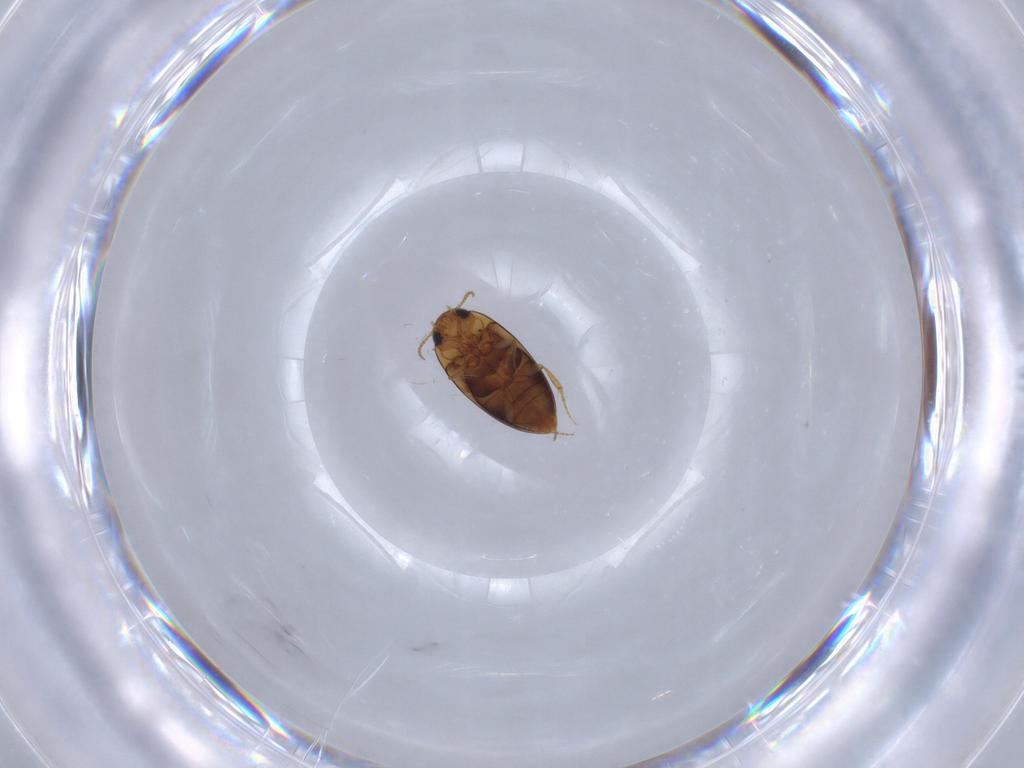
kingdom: Animalia
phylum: Arthropoda
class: Insecta
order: Coleoptera
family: Noteridae
